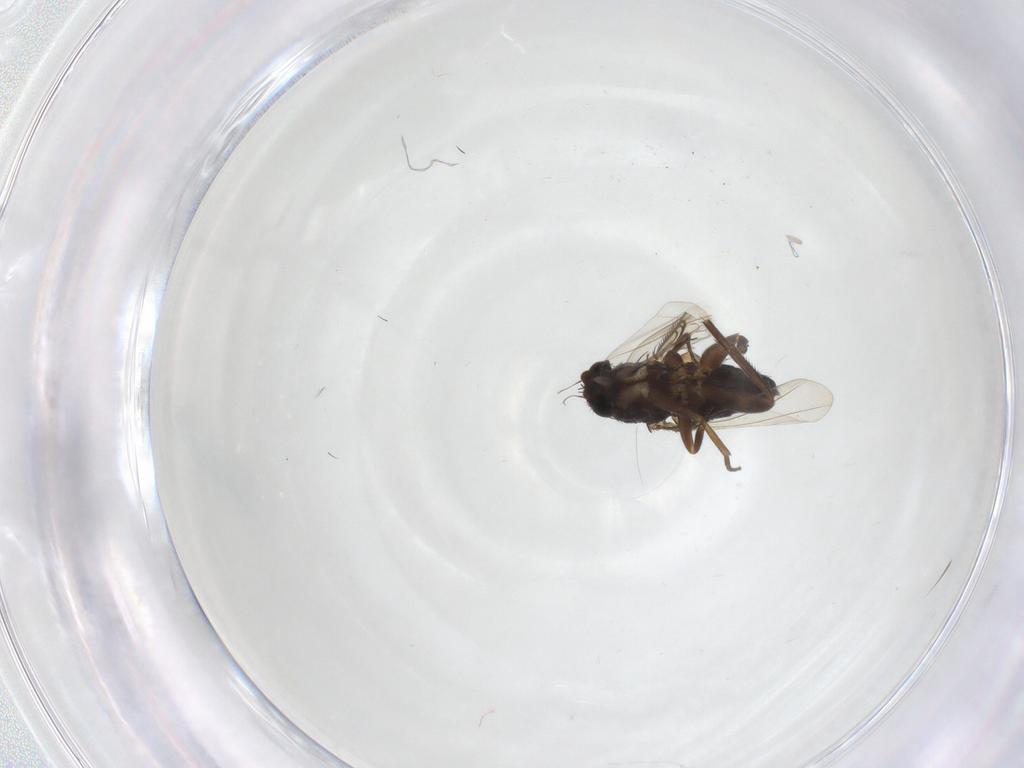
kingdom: Animalia
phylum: Arthropoda
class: Insecta
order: Diptera
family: Phoridae
